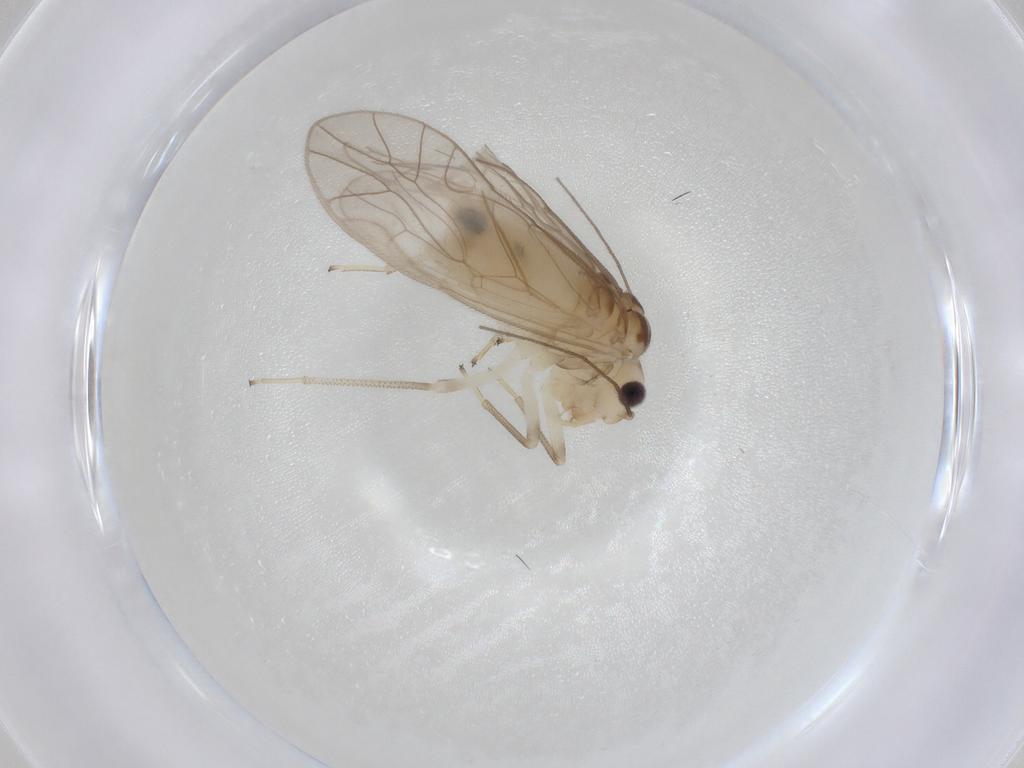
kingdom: Animalia
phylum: Arthropoda
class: Insecta
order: Psocodea
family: Caeciliusidae
